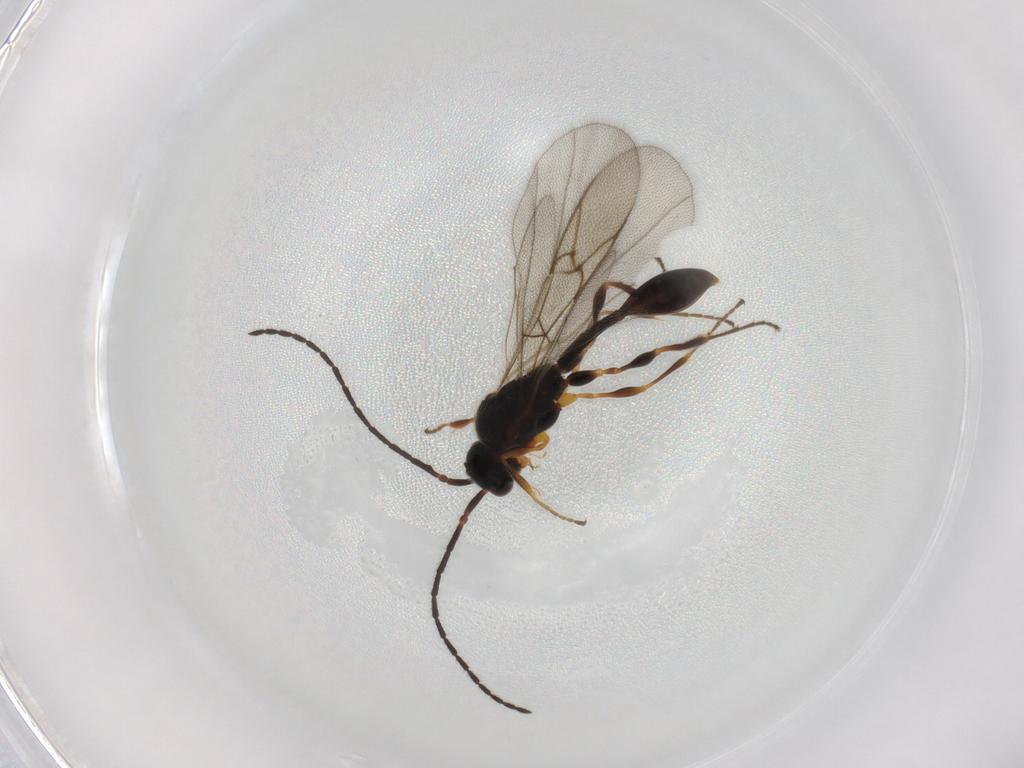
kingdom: Animalia
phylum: Arthropoda
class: Insecta
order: Hymenoptera
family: Diapriidae
